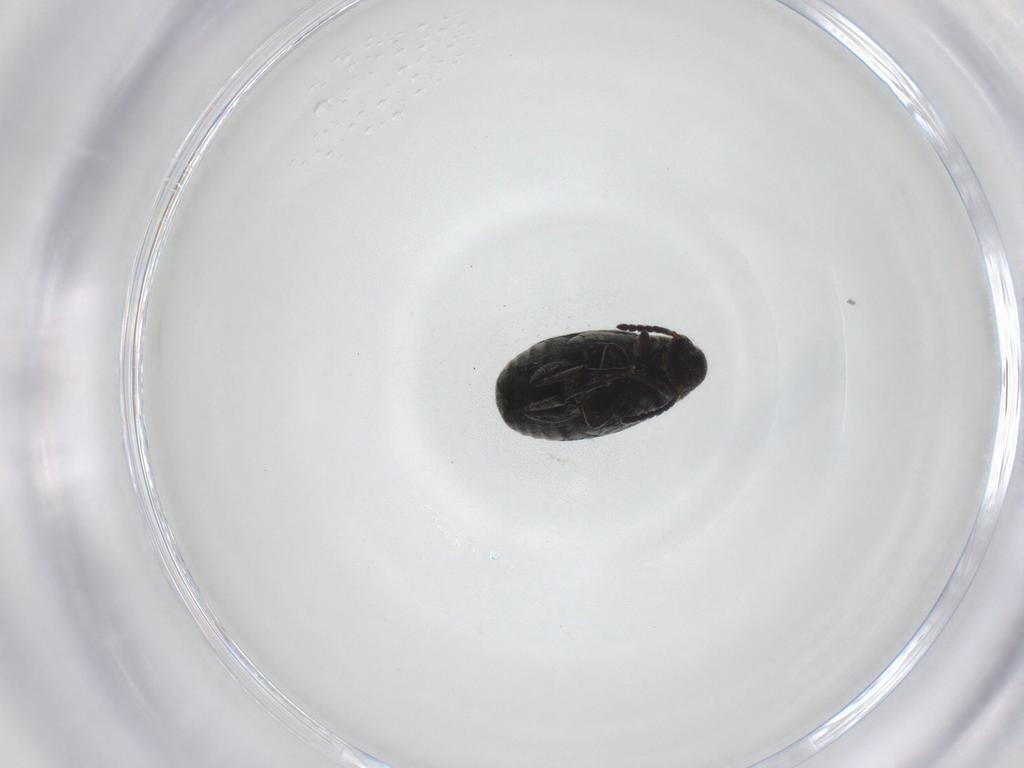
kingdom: Animalia
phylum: Arthropoda
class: Insecta
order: Coleoptera
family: Chrysomelidae
